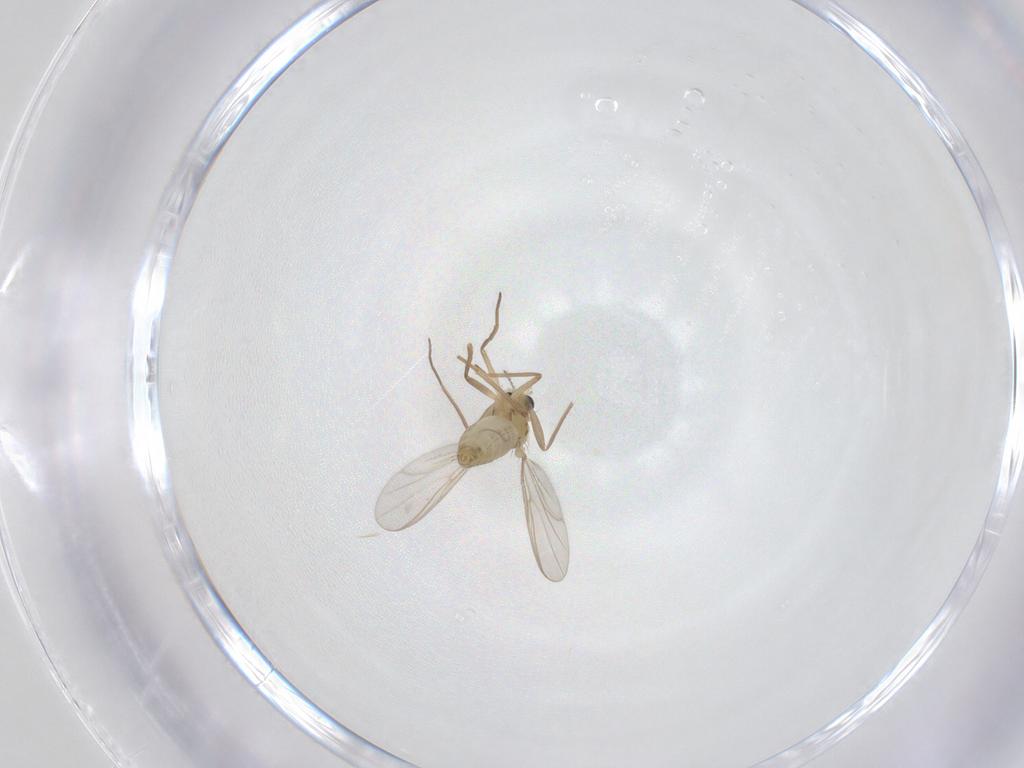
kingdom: Animalia
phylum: Arthropoda
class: Insecta
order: Diptera
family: Chironomidae
